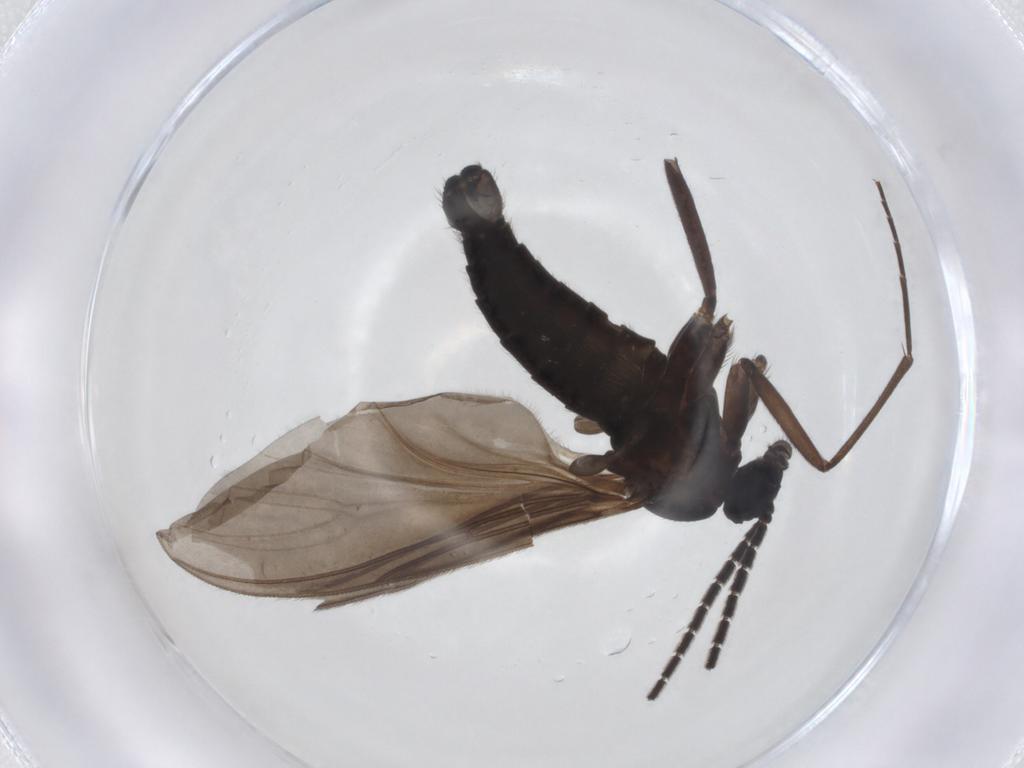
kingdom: Animalia
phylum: Arthropoda
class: Insecta
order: Diptera
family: Sciaridae
